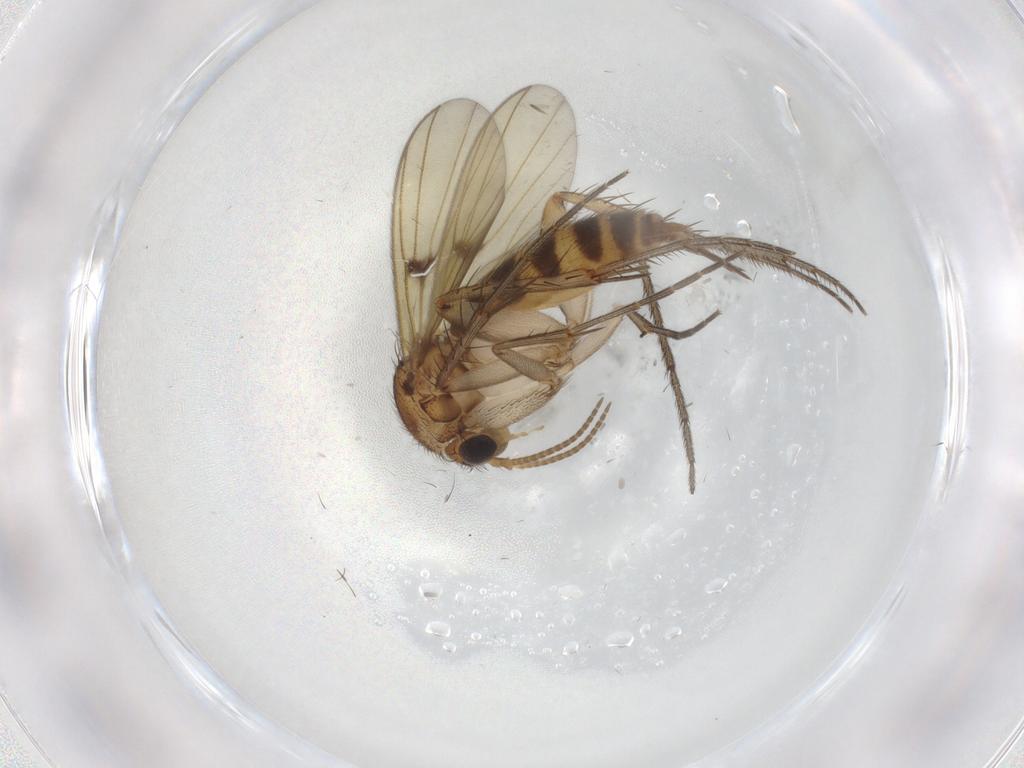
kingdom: Animalia
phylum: Arthropoda
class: Insecta
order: Diptera
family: Ditomyiidae
